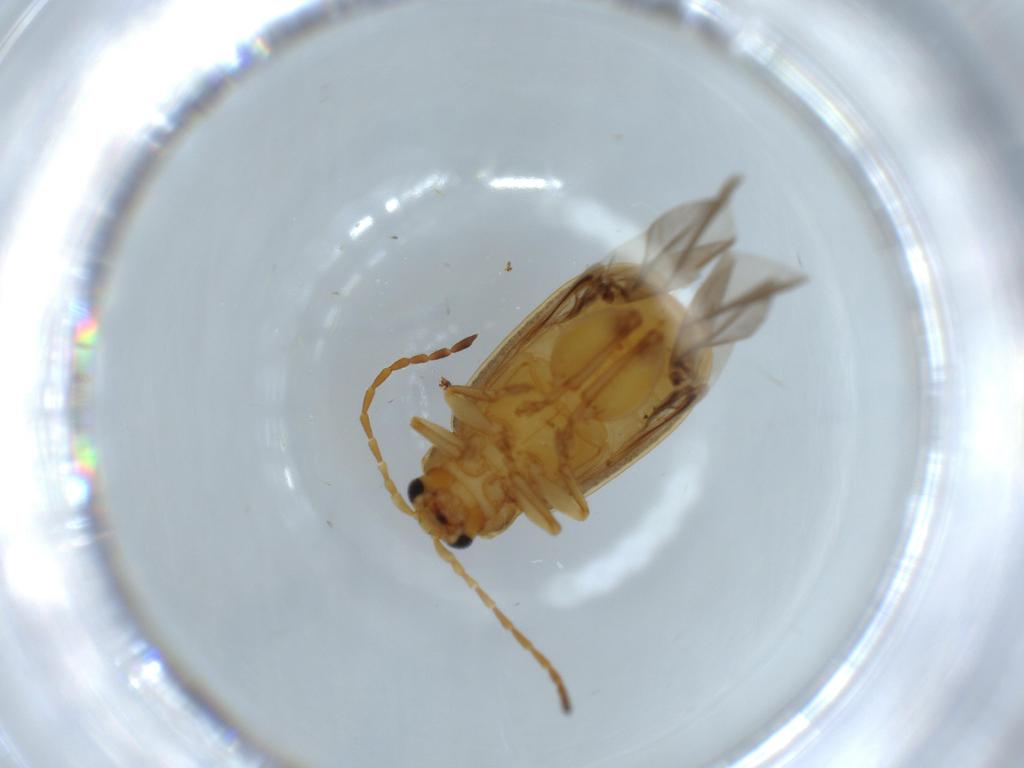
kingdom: Animalia
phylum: Arthropoda
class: Insecta
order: Coleoptera
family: Chrysomelidae
